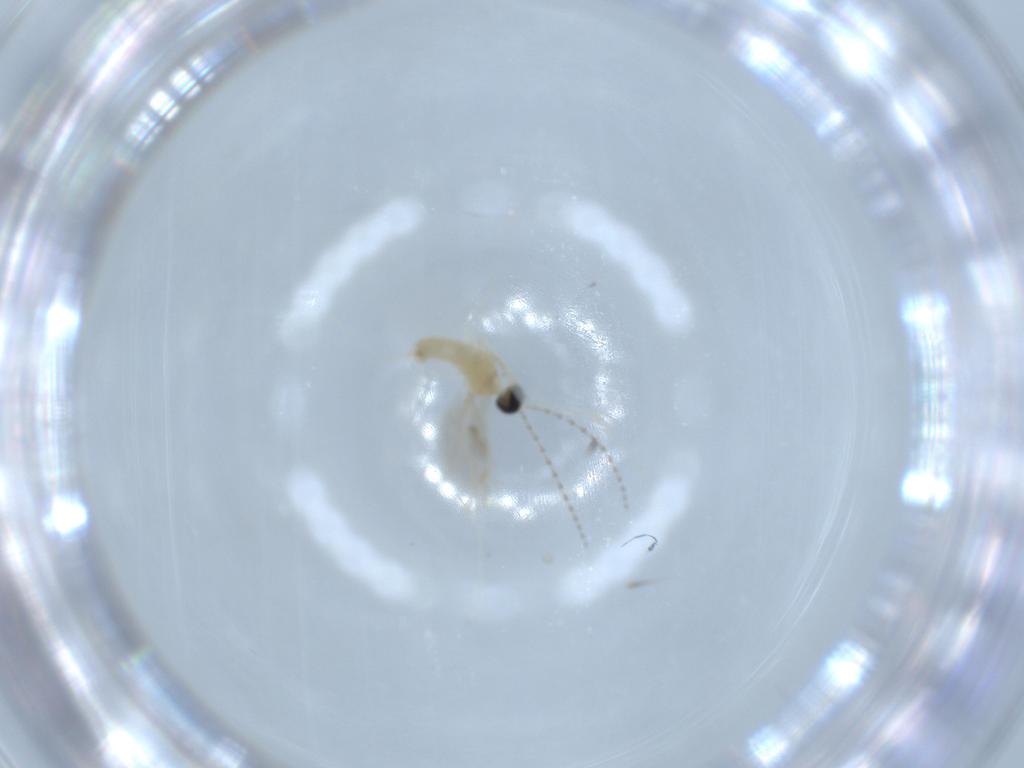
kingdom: Animalia
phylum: Arthropoda
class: Insecta
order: Diptera
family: Cecidomyiidae
